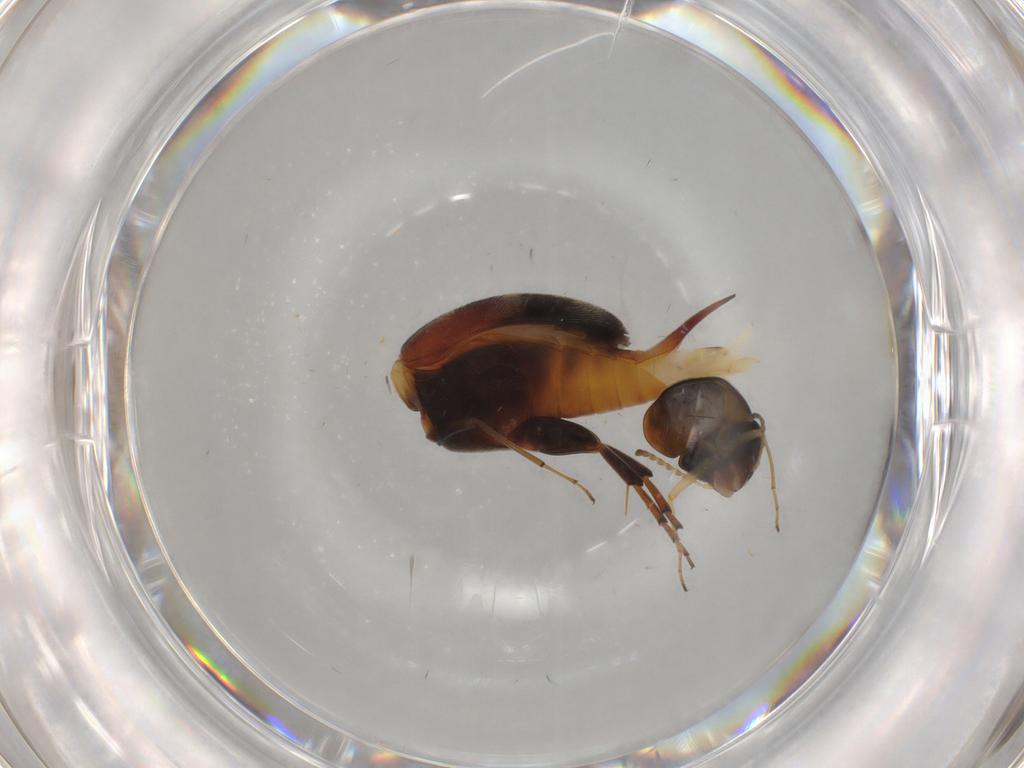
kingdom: Animalia
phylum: Arthropoda
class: Insecta
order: Coleoptera
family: Mordellidae
